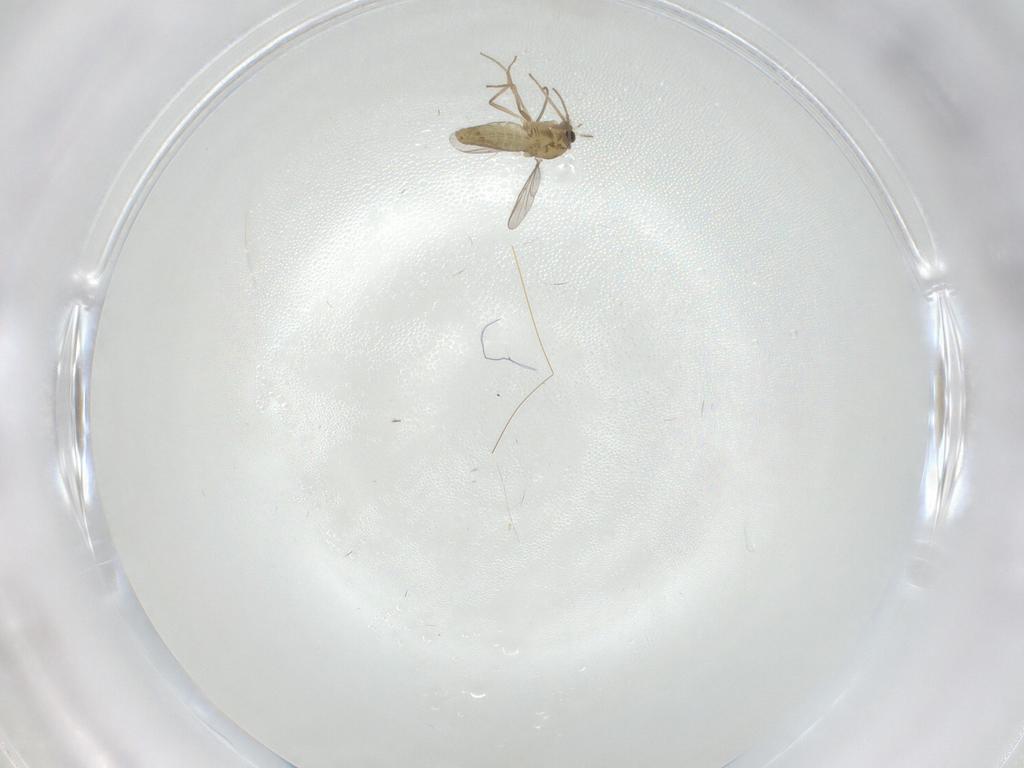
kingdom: Animalia
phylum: Arthropoda
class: Insecta
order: Diptera
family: Chironomidae
